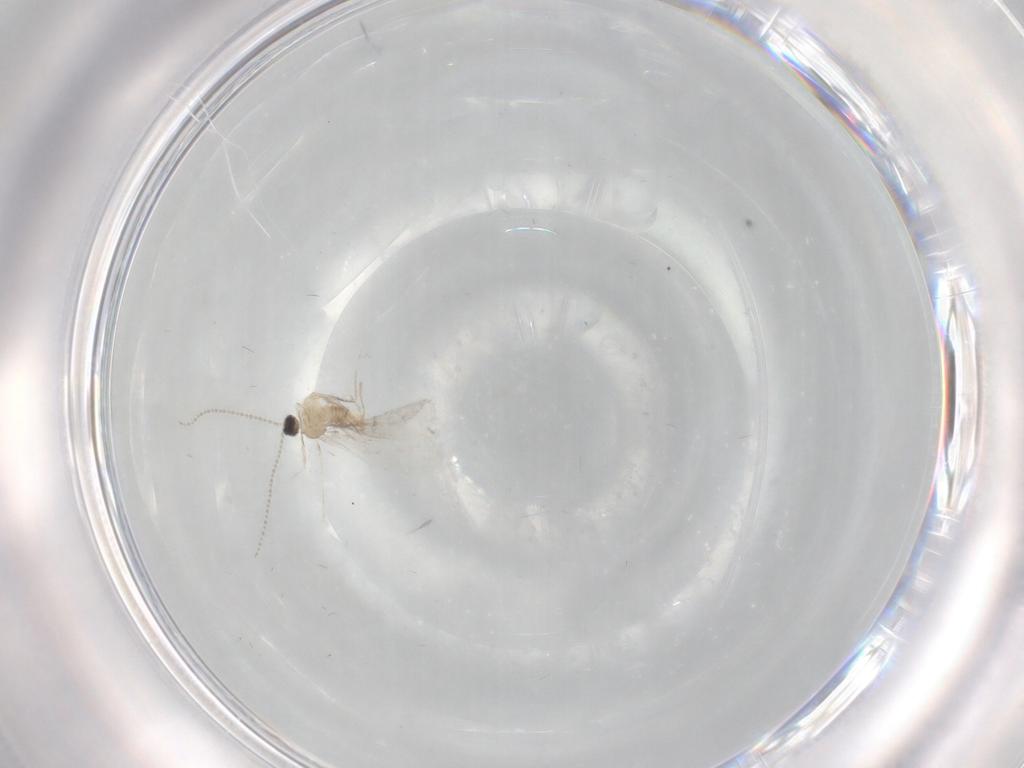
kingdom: Animalia
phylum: Arthropoda
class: Insecta
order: Diptera
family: Cecidomyiidae
